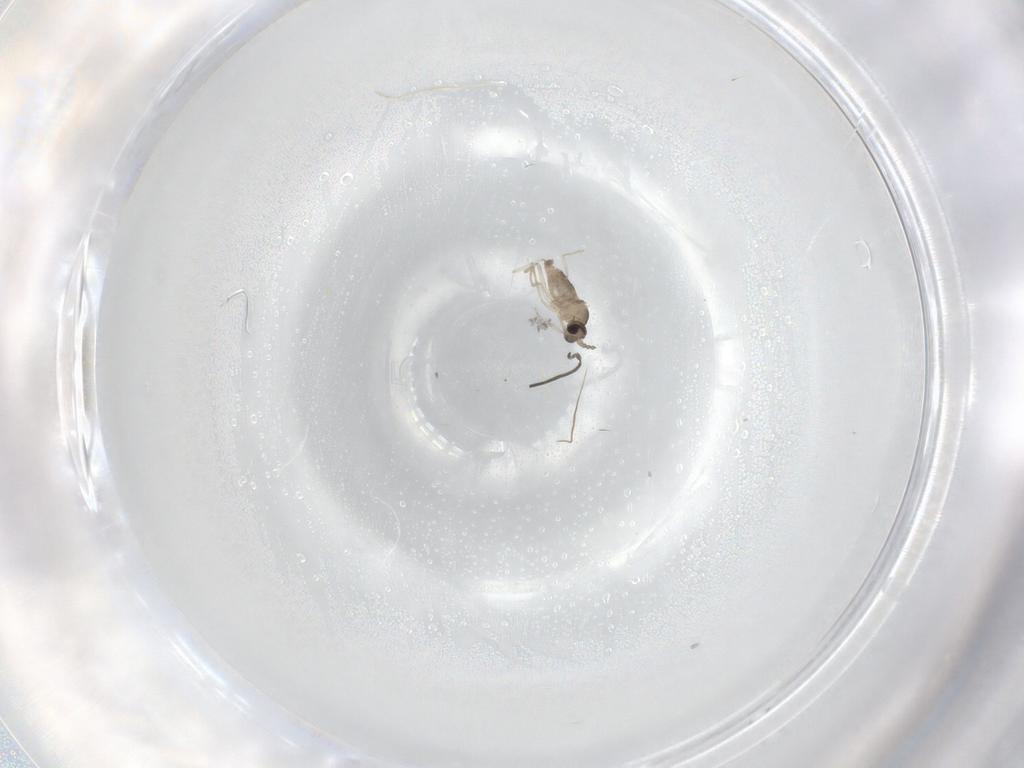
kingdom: Animalia
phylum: Arthropoda
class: Insecta
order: Diptera
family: Cecidomyiidae
